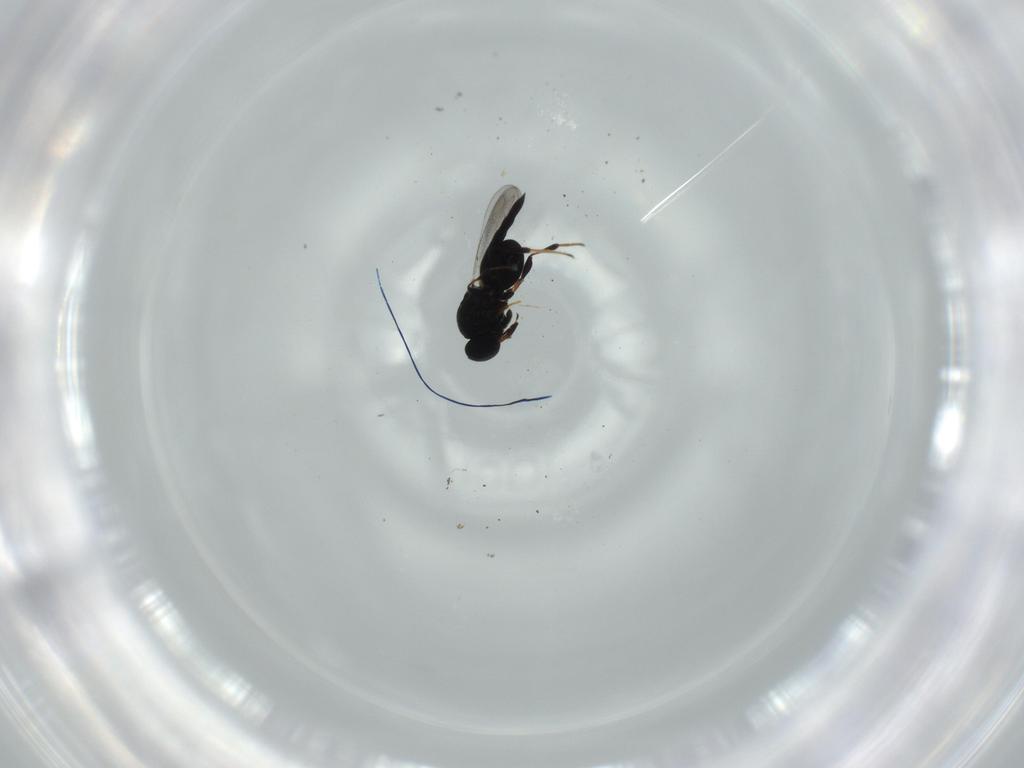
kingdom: Animalia
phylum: Arthropoda
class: Insecta
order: Hymenoptera
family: Platygastridae
